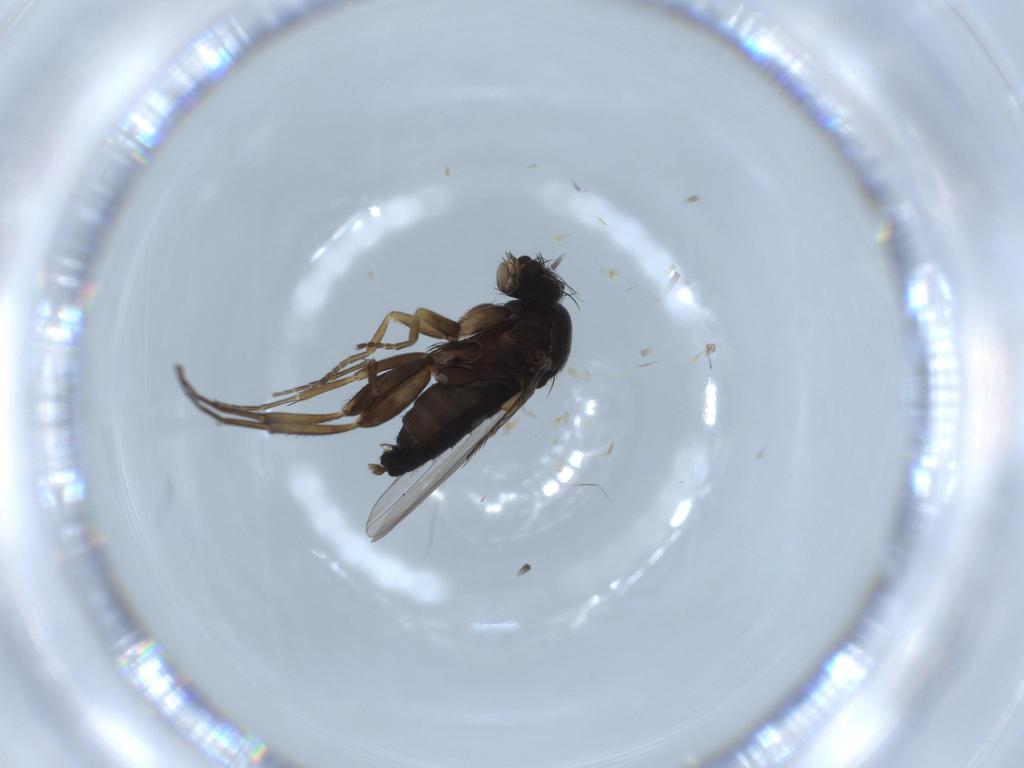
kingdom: Animalia
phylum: Arthropoda
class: Insecta
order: Diptera
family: Phoridae
